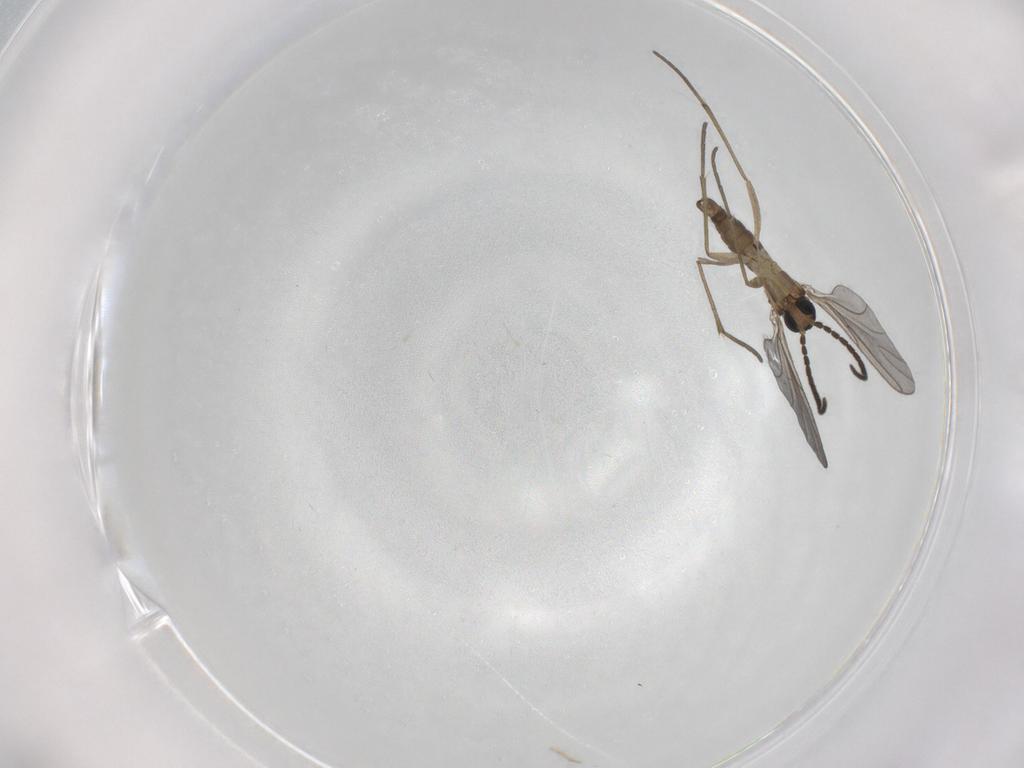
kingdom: Animalia
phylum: Arthropoda
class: Insecta
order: Diptera
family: Sciaridae
